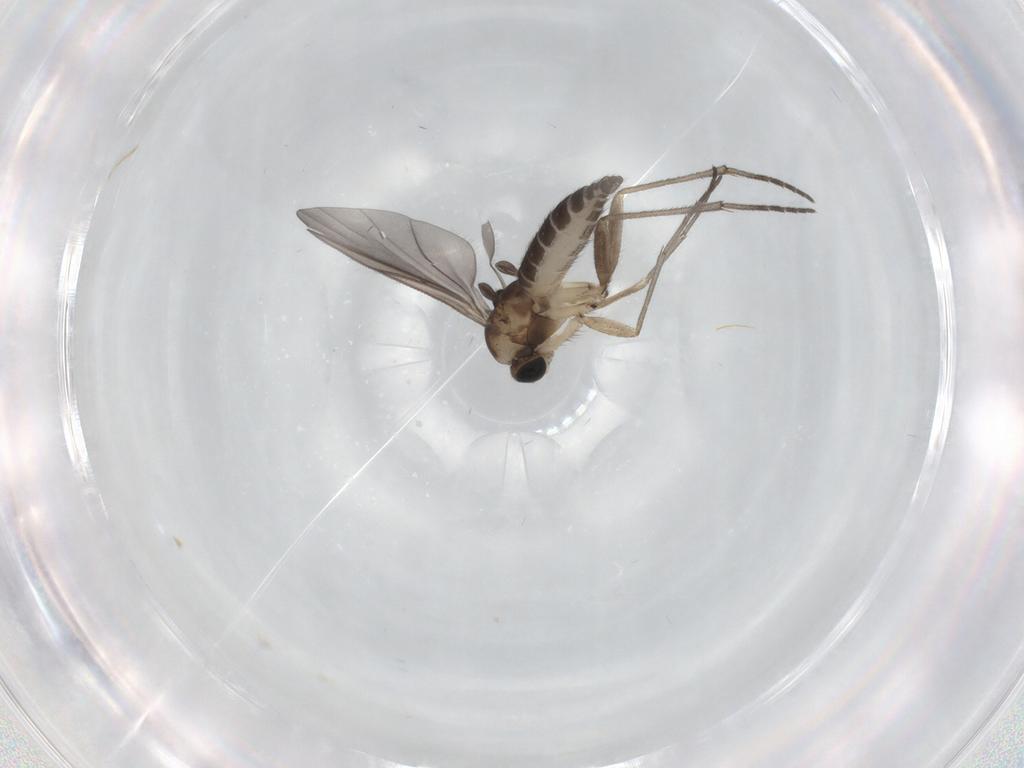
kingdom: Animalia
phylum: Arthropoda
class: Insecta
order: Diptera
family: Sciaridae
